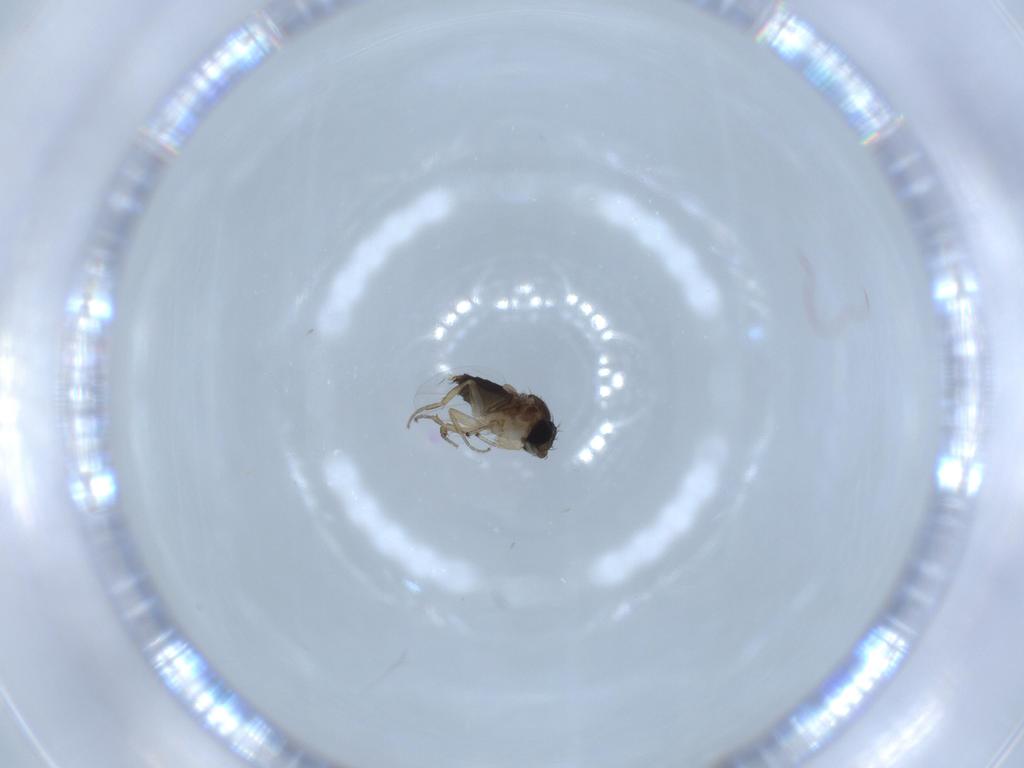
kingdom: Animalia
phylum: Arthropoda
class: Insecta
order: Diptera
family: Phoridae
